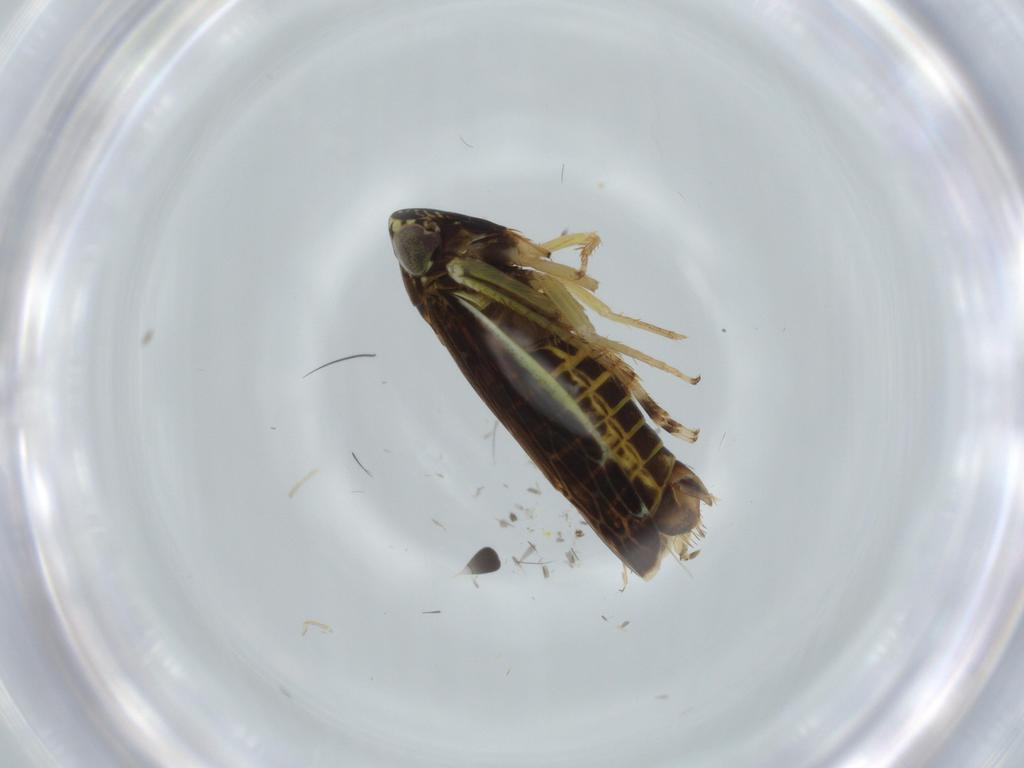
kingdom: Animalia
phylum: Arthropoda
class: Insecta
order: Hemiptera
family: Cicadellidae
